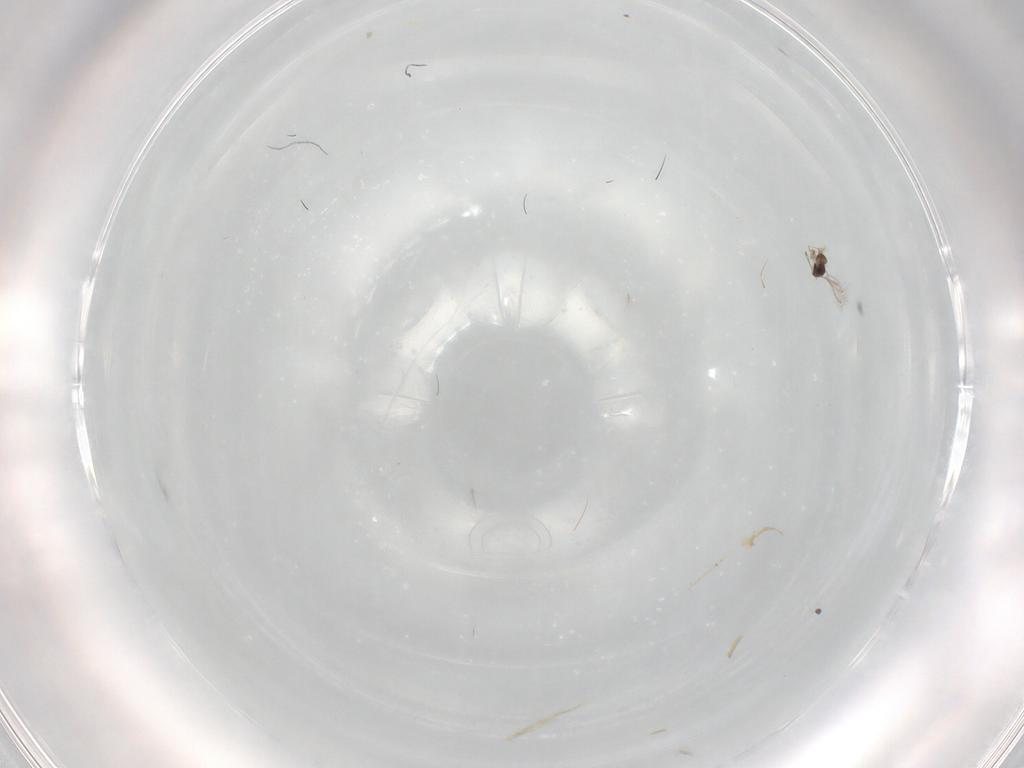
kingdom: Animalia
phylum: Arthropoda
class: Insecta
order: Hymenoptera
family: Mymaridae
